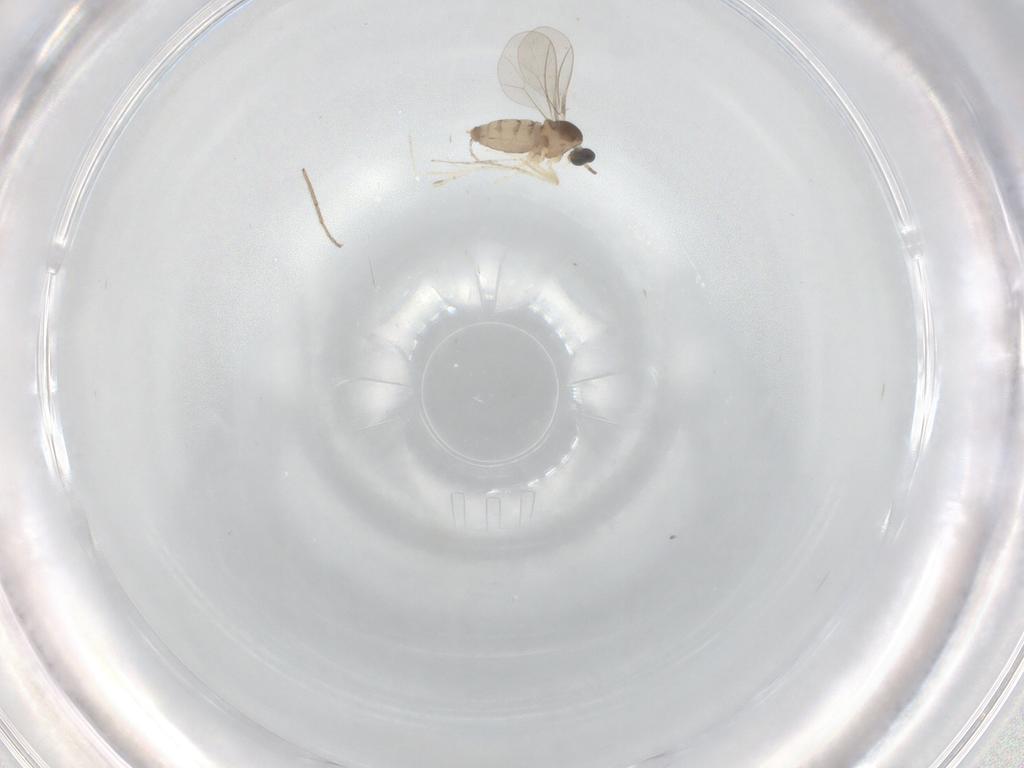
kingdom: Animalia
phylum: Arthropoda
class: Insecta
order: Diptera
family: Cecidomyiidae
